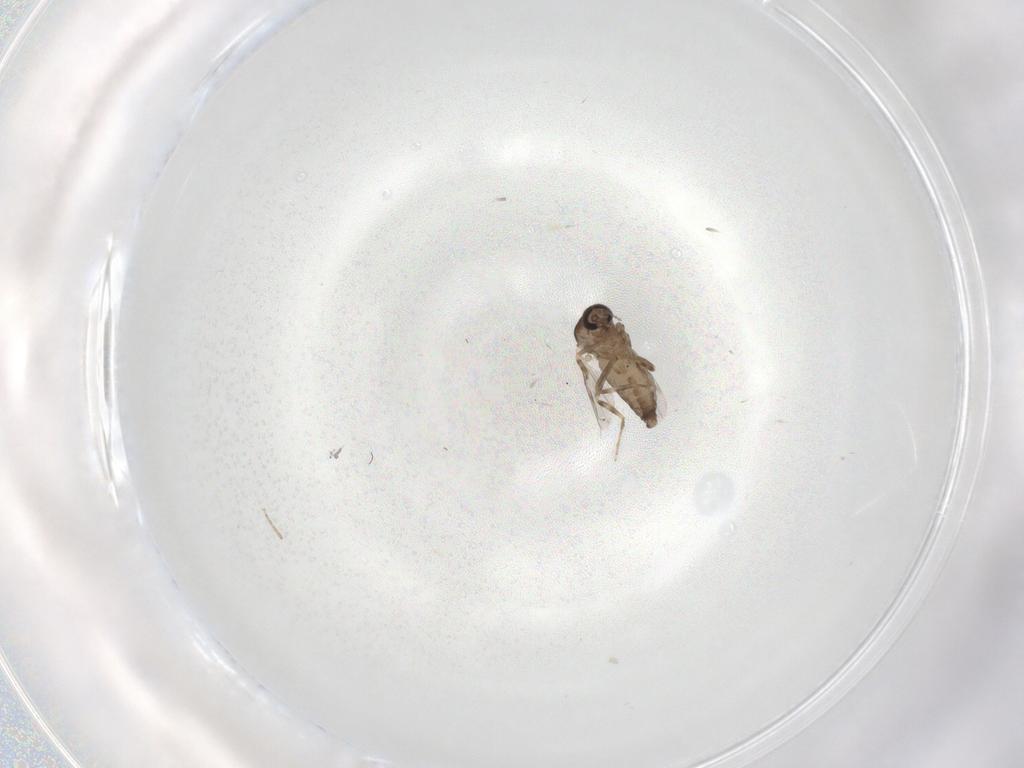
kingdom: Animalia
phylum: Arthropoda
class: Insecta
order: Diptera
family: Ceratopogonidae
